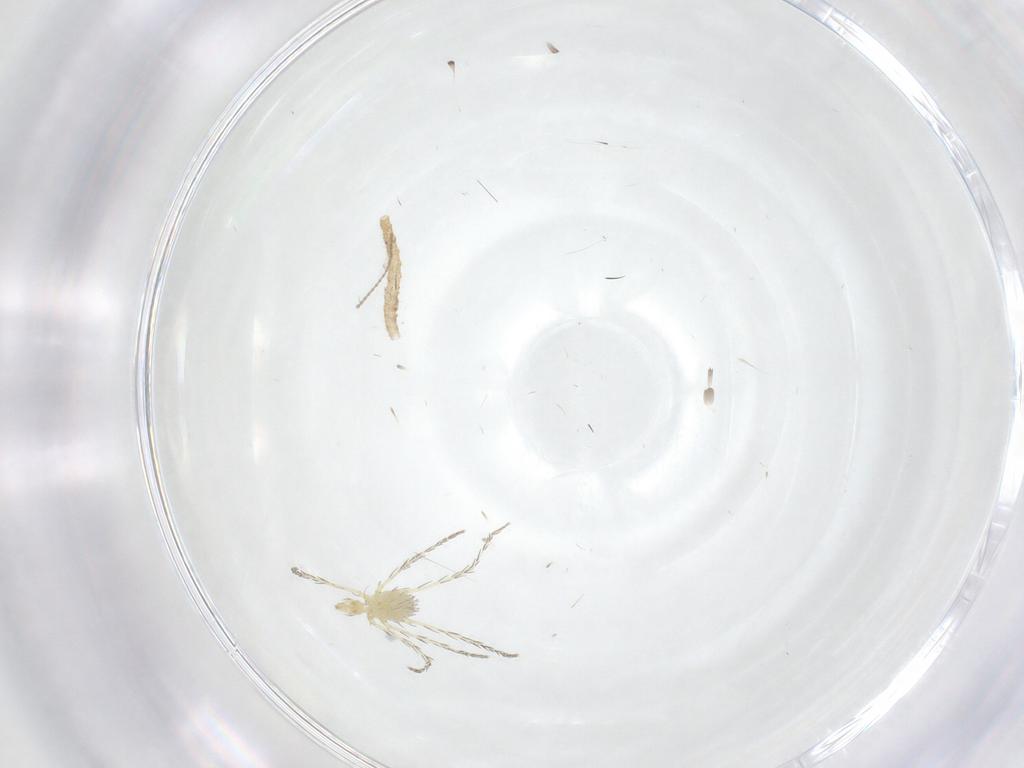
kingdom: Animalia
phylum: Arthropoda
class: Insecta
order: Diptera
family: Ceratopogonidae
